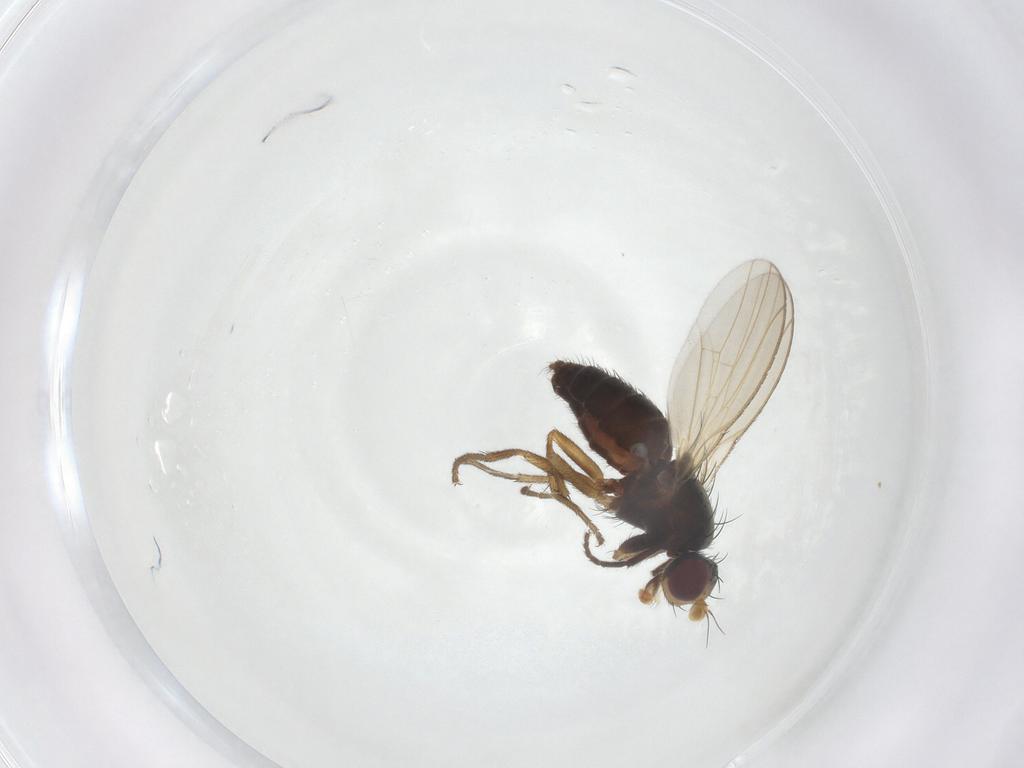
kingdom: Animalia
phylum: Arthropoda
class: Insecta
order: Diptera
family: Heleomyzidae
